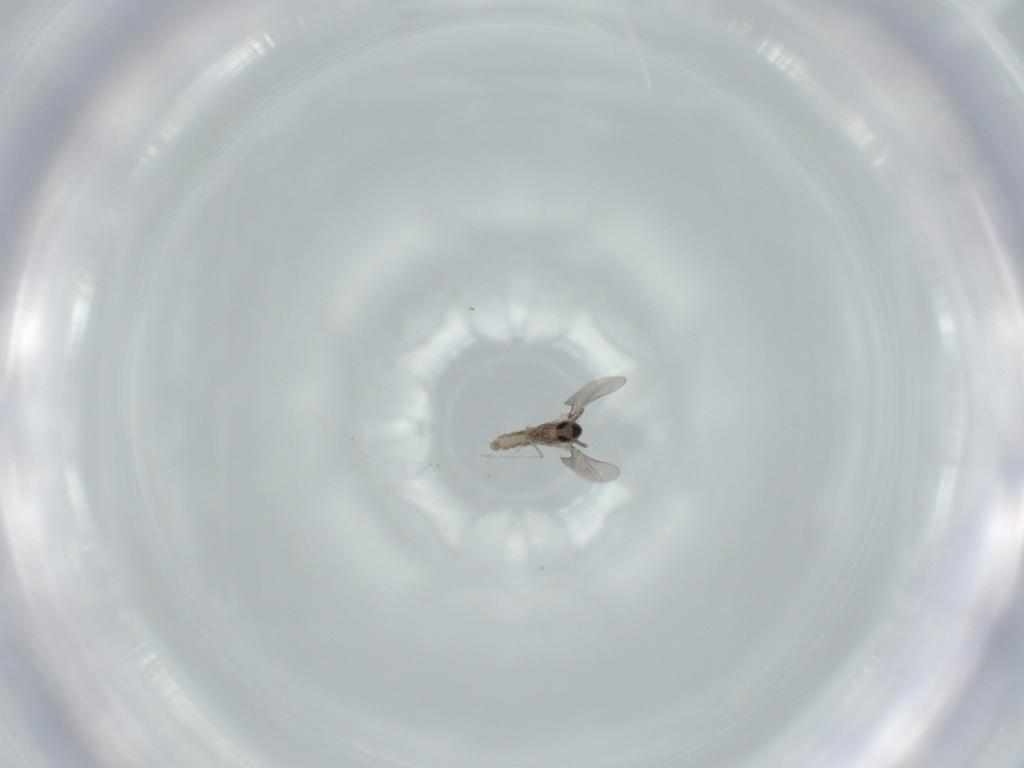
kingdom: Animalia
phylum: Arthropoda
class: Insecta
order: Diptera
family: Cecidomyiidae
